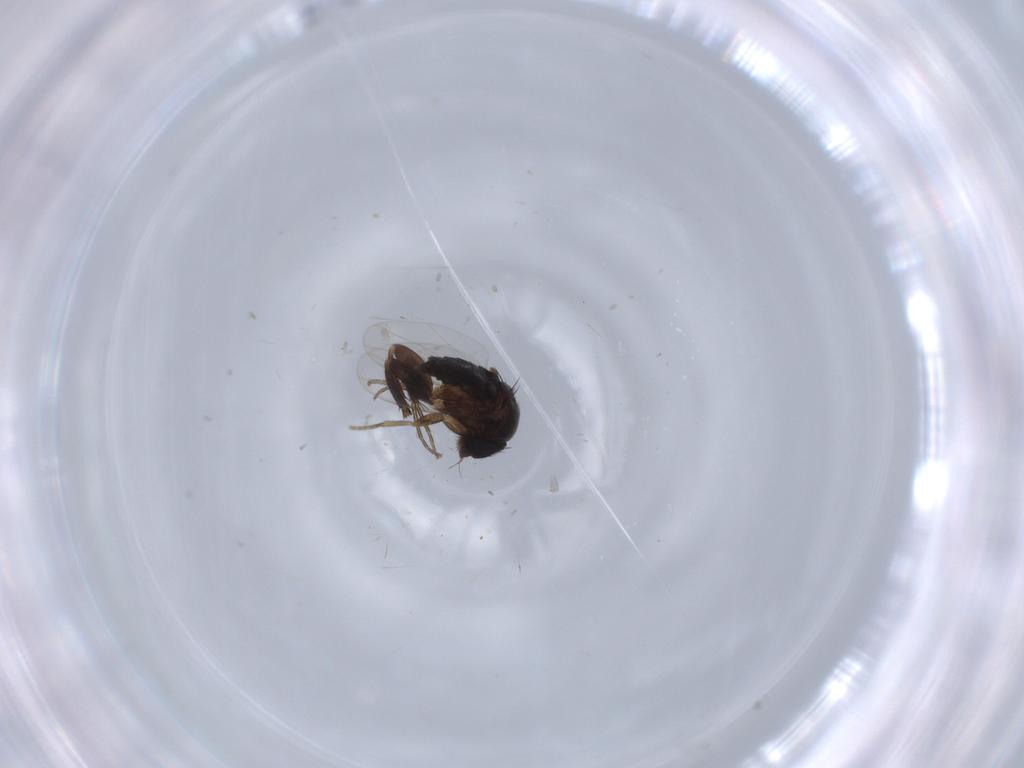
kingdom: Animalia
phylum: Arthropoda
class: Insecta
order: Diptera
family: Phoridae
